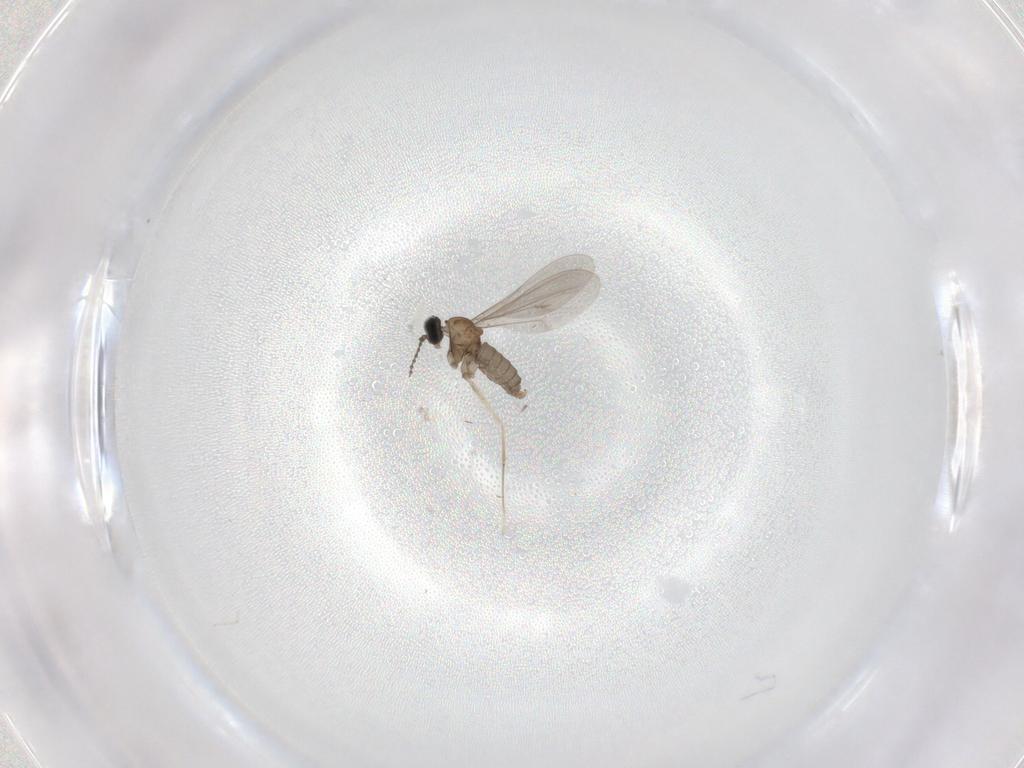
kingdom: Animalia
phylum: Arthropoda
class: Insecta
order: Diptera
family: Cecidomyiidae
